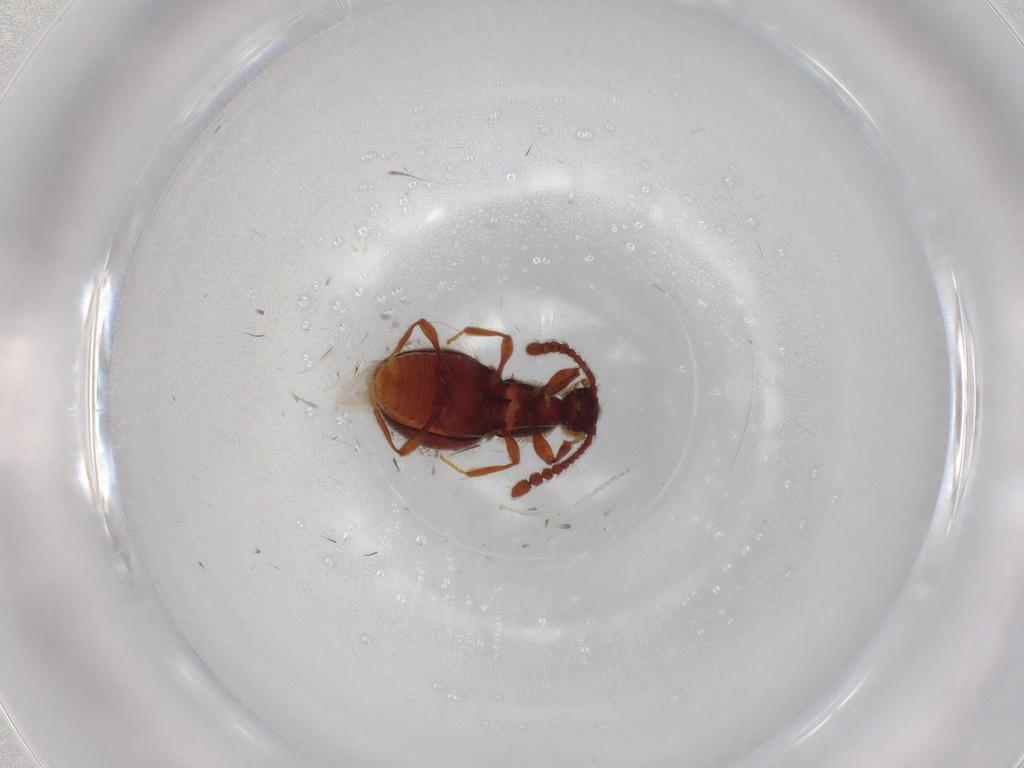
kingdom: Animalia
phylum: Arthropoda
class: Insecta
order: Coleoptera
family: Staphylinidae
